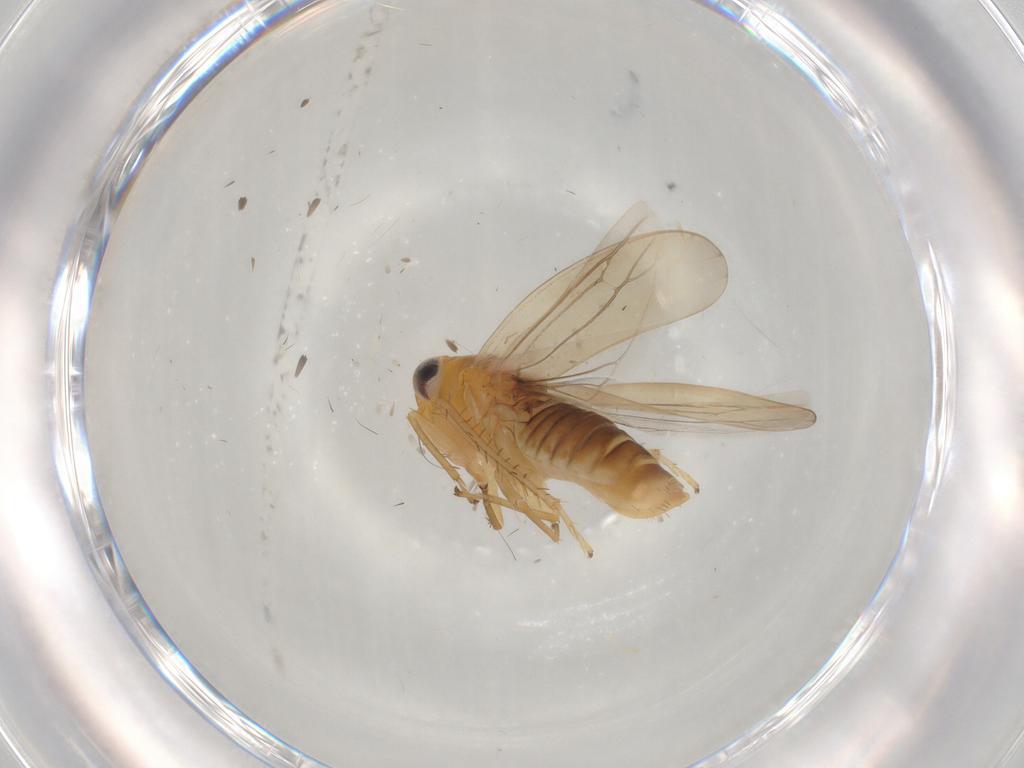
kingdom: Animalia
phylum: Arthropoda
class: Insecta
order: Hemiptera
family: Cicadellidae
